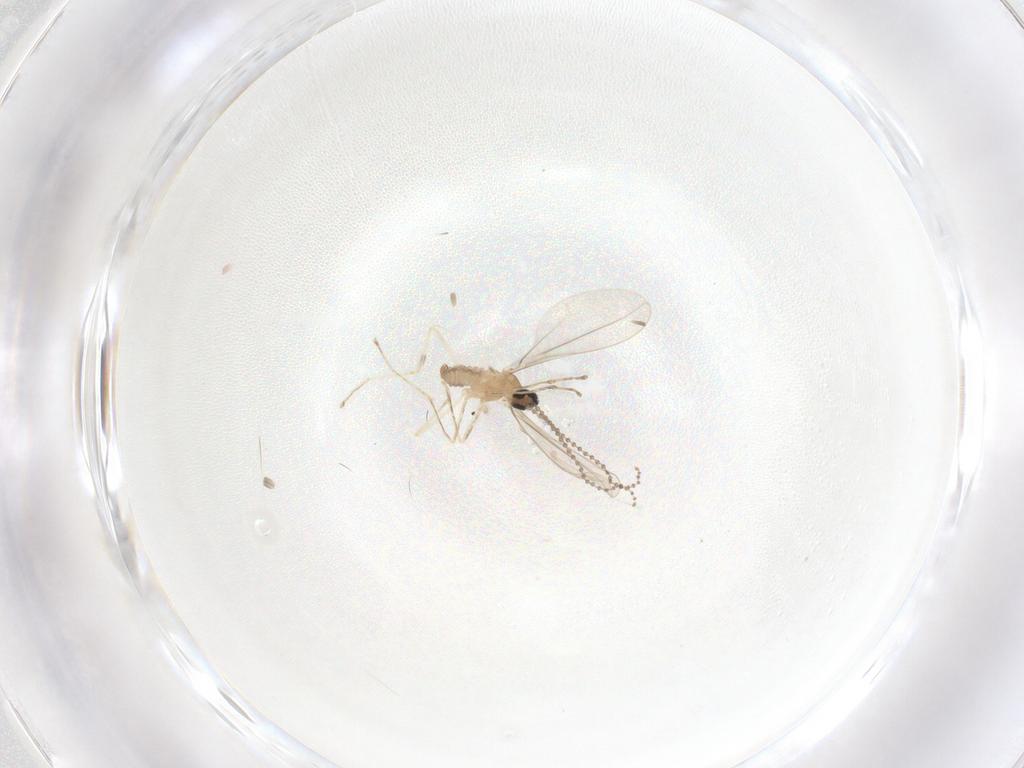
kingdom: Animalia
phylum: Arthropoda
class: Insecta
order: Diptera
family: Cecidomyiidae
